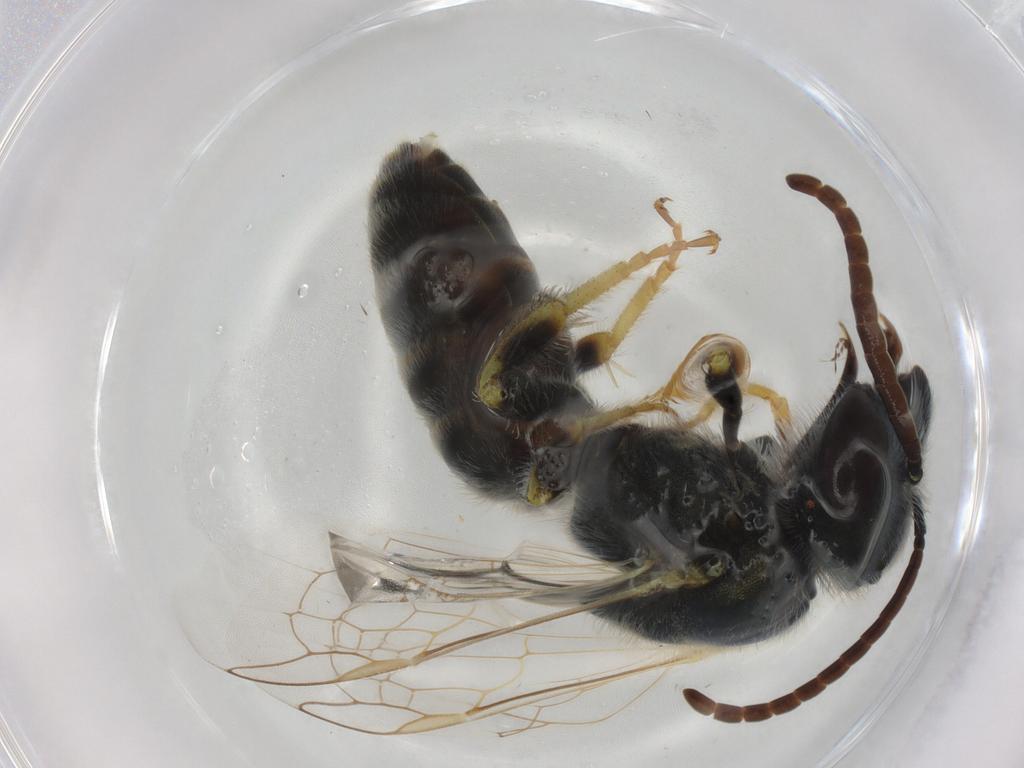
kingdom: Animalia
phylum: Arthropoda
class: Insecta
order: Hymenoptera
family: Halictidae
